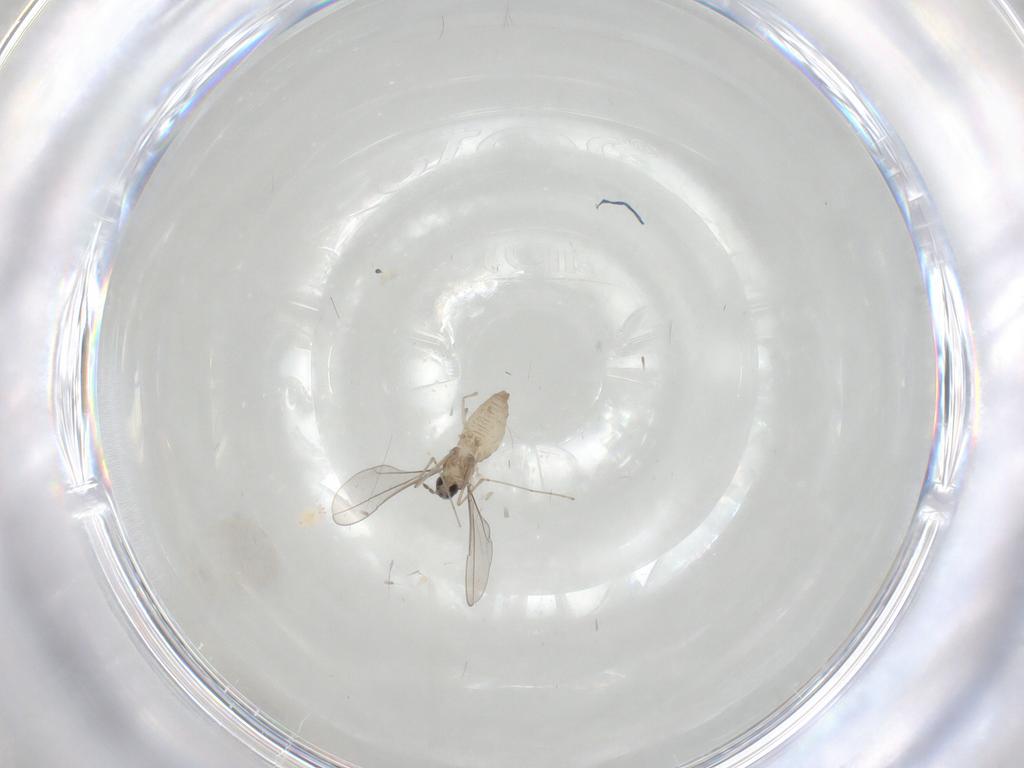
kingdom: Animalia
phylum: Arthropoda
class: Insecta
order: Diptera
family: Cecidomyiidae
